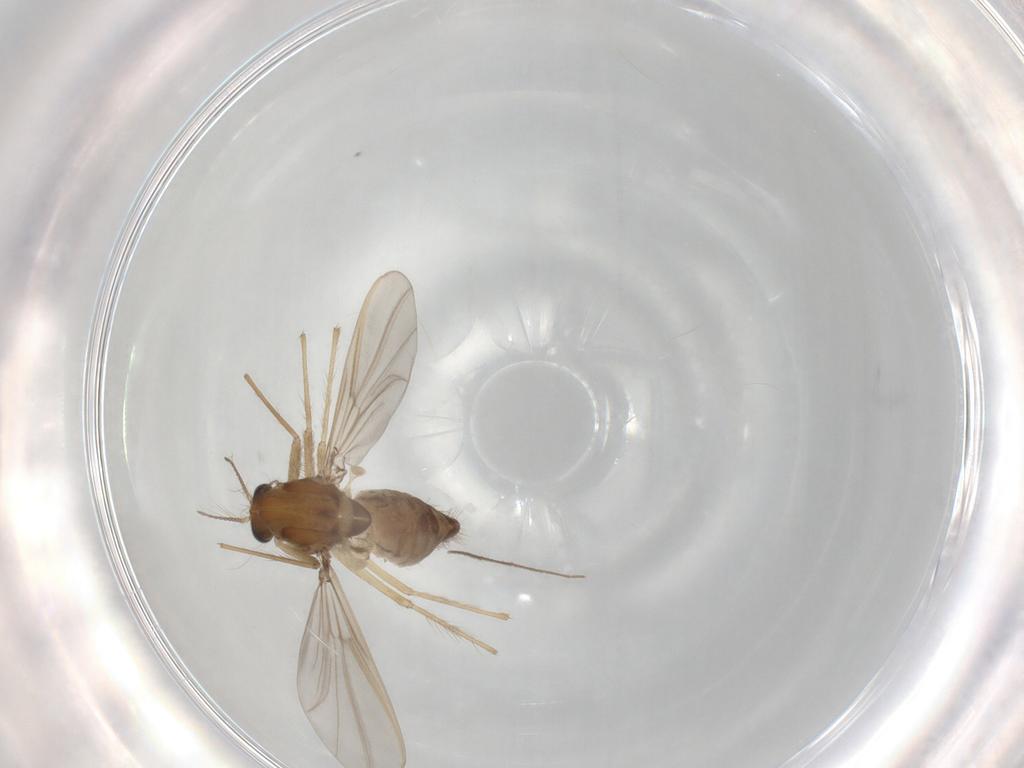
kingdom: Animalia
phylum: Arthropoda
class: Insecta
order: Diptera
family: Chironomidae
